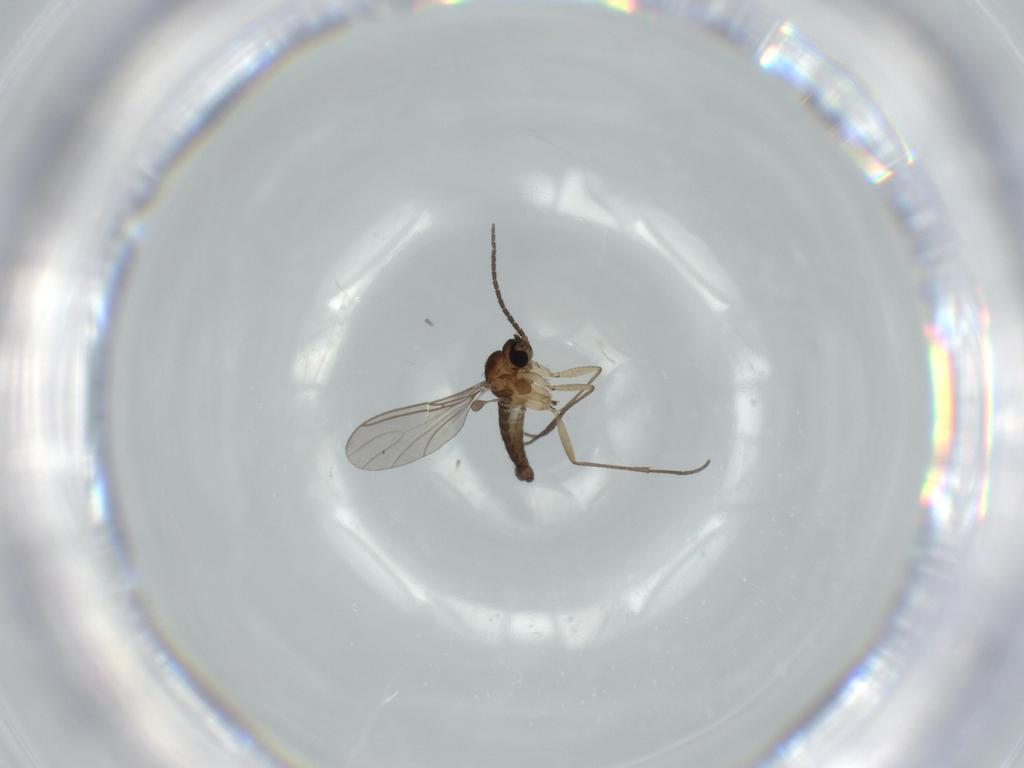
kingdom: Animalia
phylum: Arthropoda
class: Insecta
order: Diptera
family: Sciaridae
